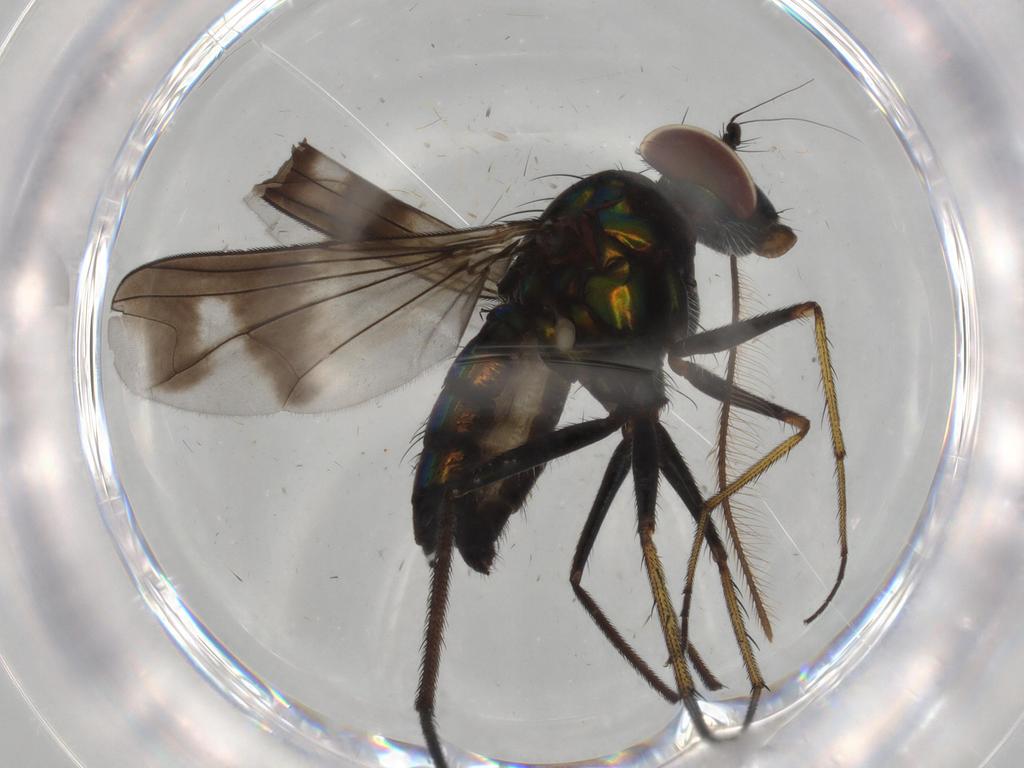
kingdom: Animalia
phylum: Arthropoda
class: Insecta
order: Diptera
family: Dolichopodidae
